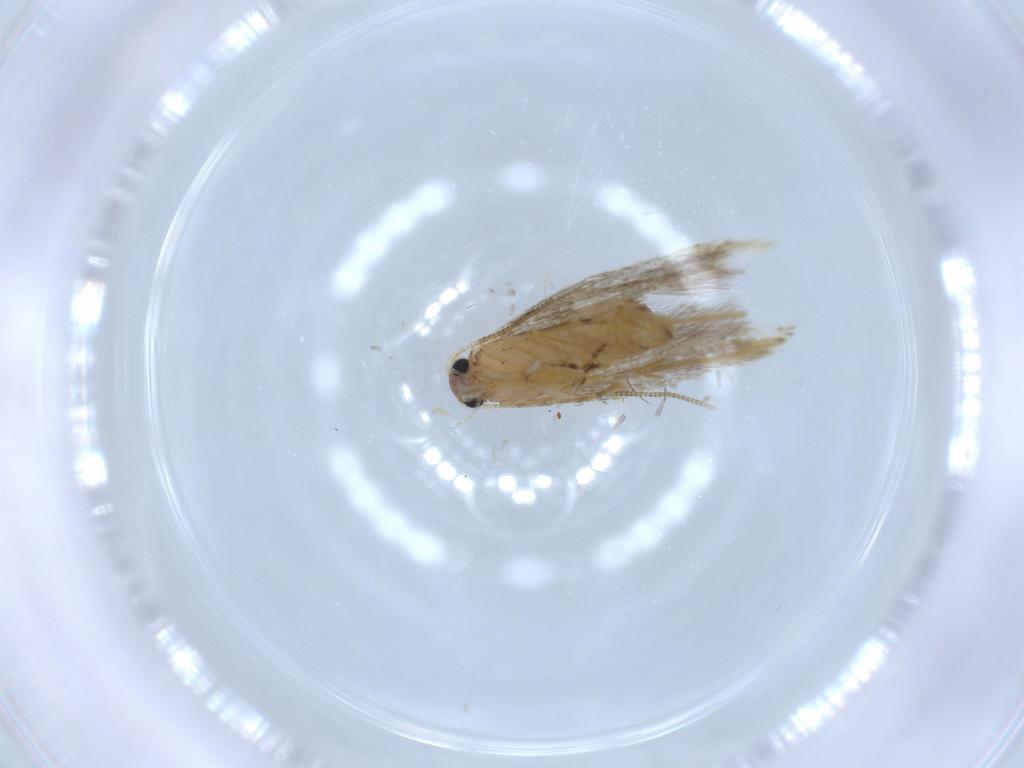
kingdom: Animalia
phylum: Arthropoda
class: Insecta
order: Lepidoptera
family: Tineidae
